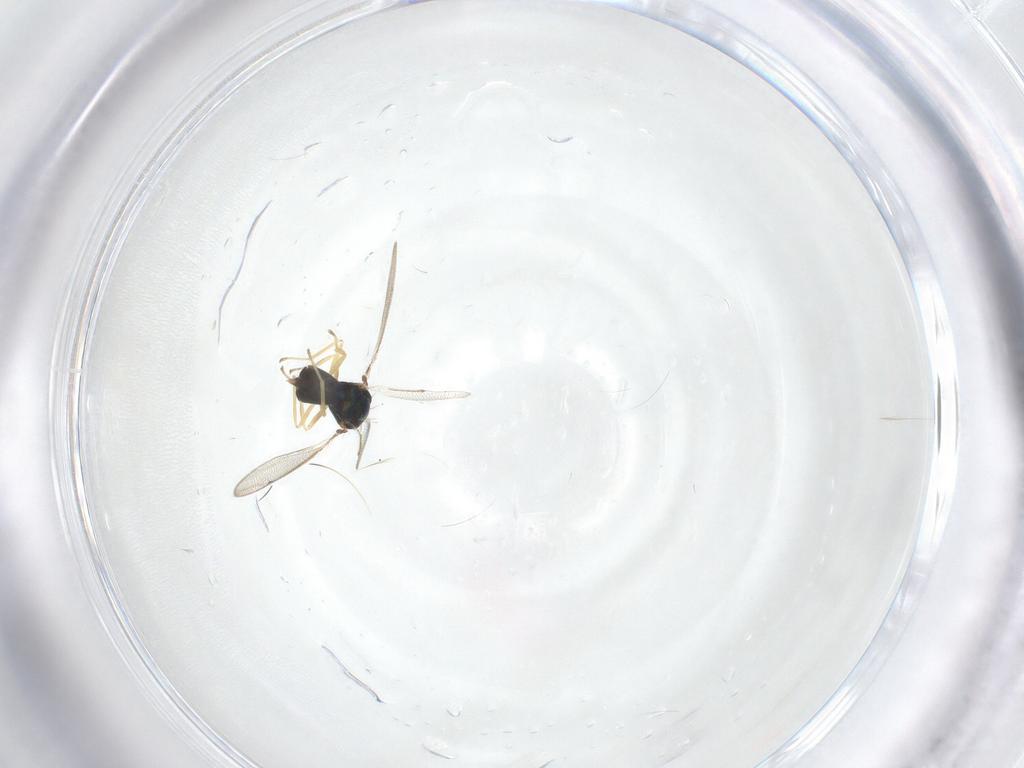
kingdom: Animalia
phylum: Arthropoda
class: Insecta
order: Hymenoptera
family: Eulophidae
